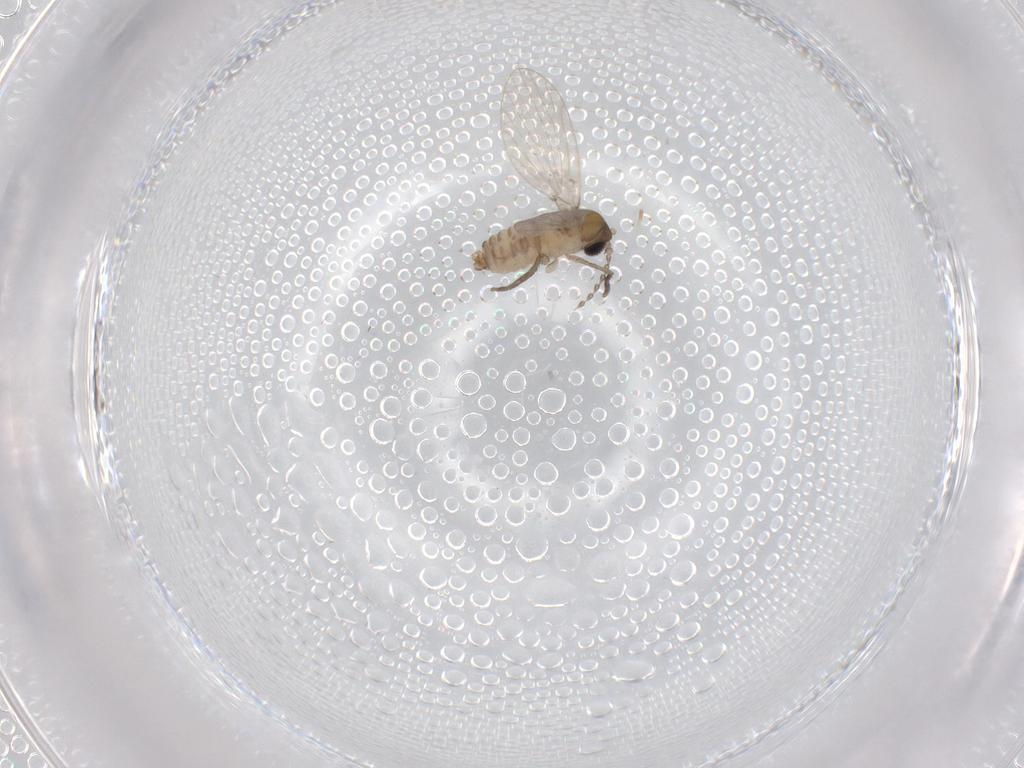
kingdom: Animalia
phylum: Arthropoda
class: Insecta
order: Diptera
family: Psychodidae
